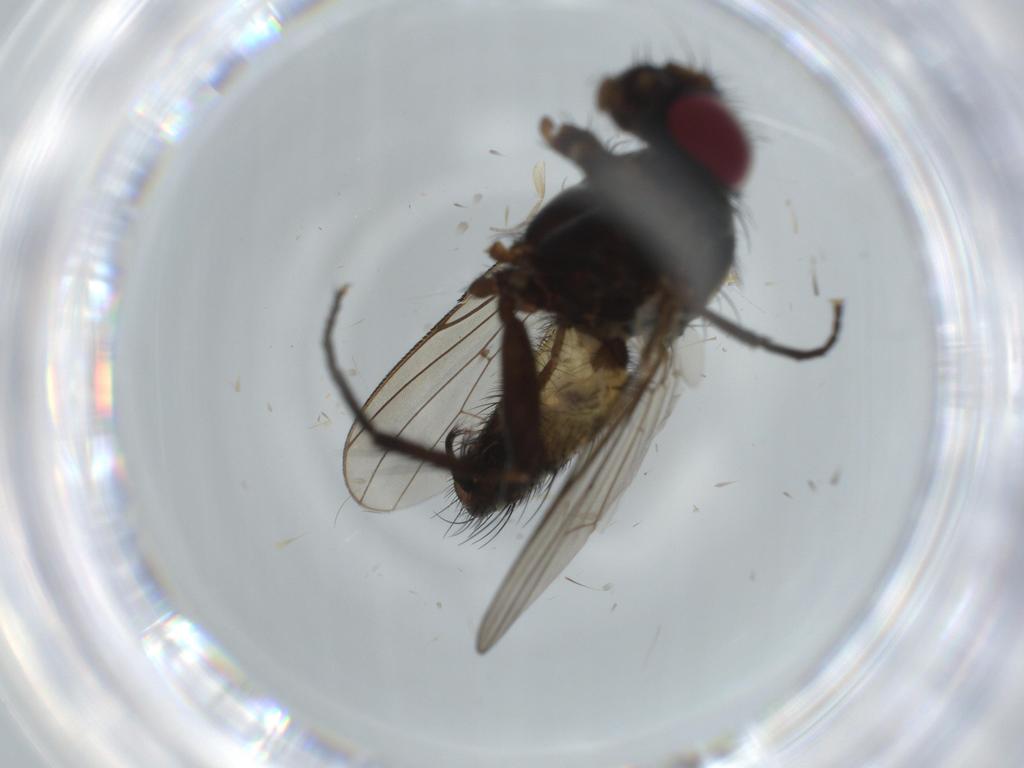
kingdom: Animalia
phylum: Arthropoda
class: Insecta
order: Diptera
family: Ceratopogonidae
